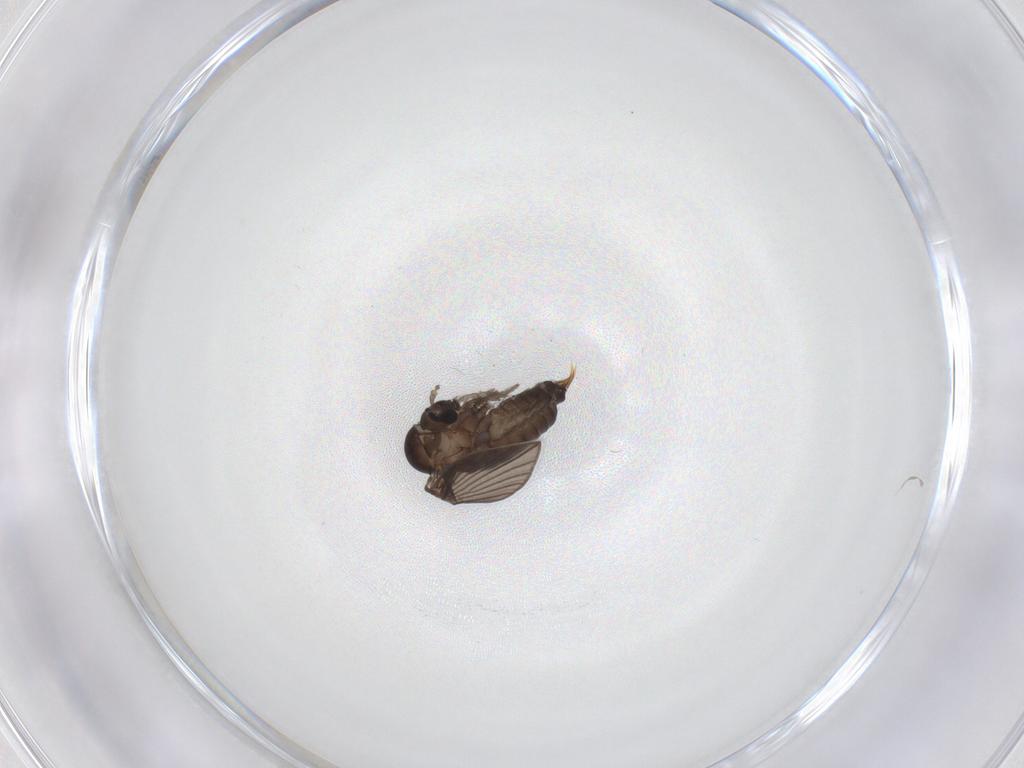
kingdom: Animalia
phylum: Arthropoda
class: Insecta
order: Diptera
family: Psychodidae
